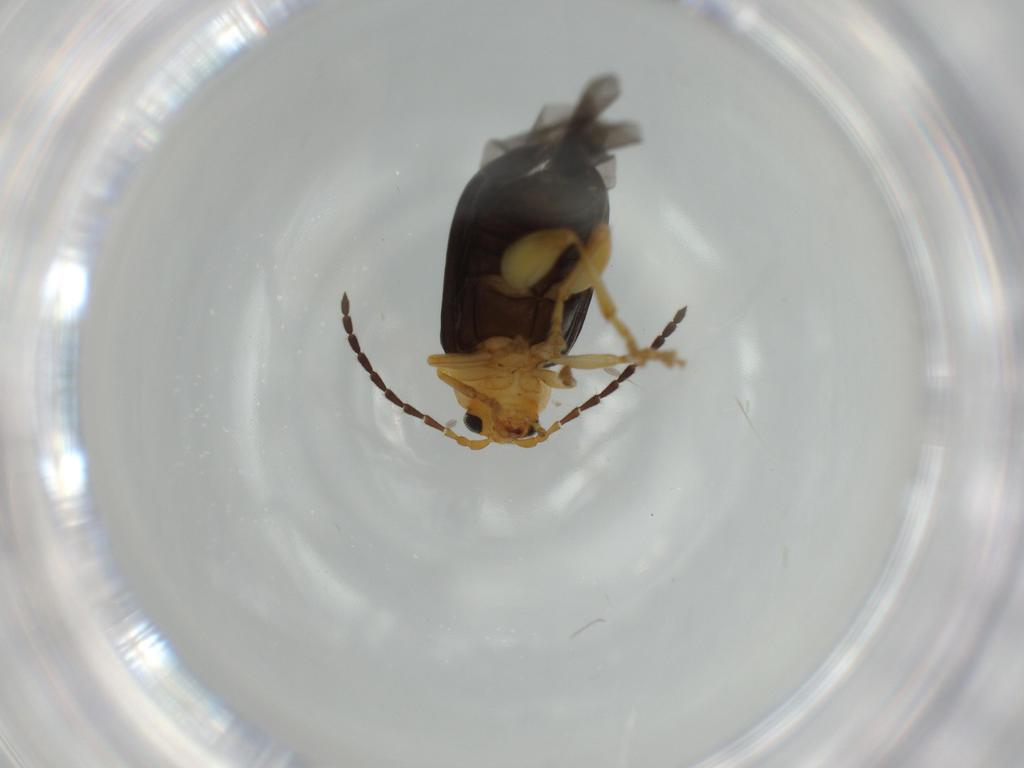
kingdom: Animalia
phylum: Arthropoda
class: Insecta
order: Coleoptera
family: Chrysomelidae
